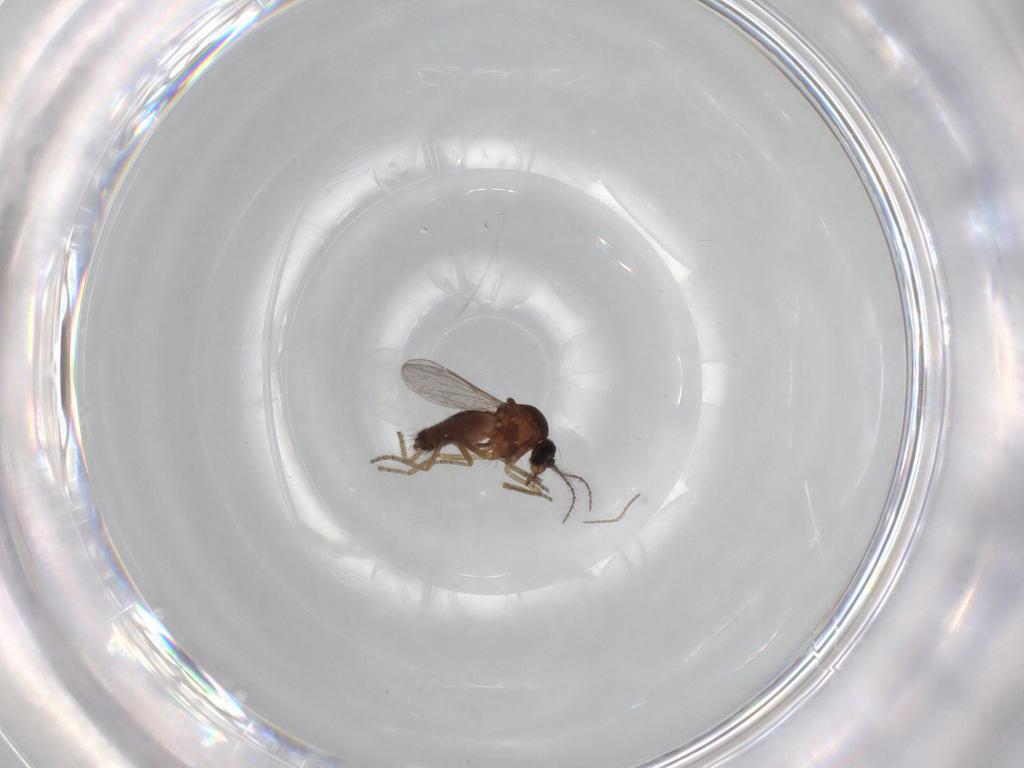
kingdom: Animalia
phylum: Arthropoda
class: Insecta
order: Diptera
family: Ceratopogonidae
